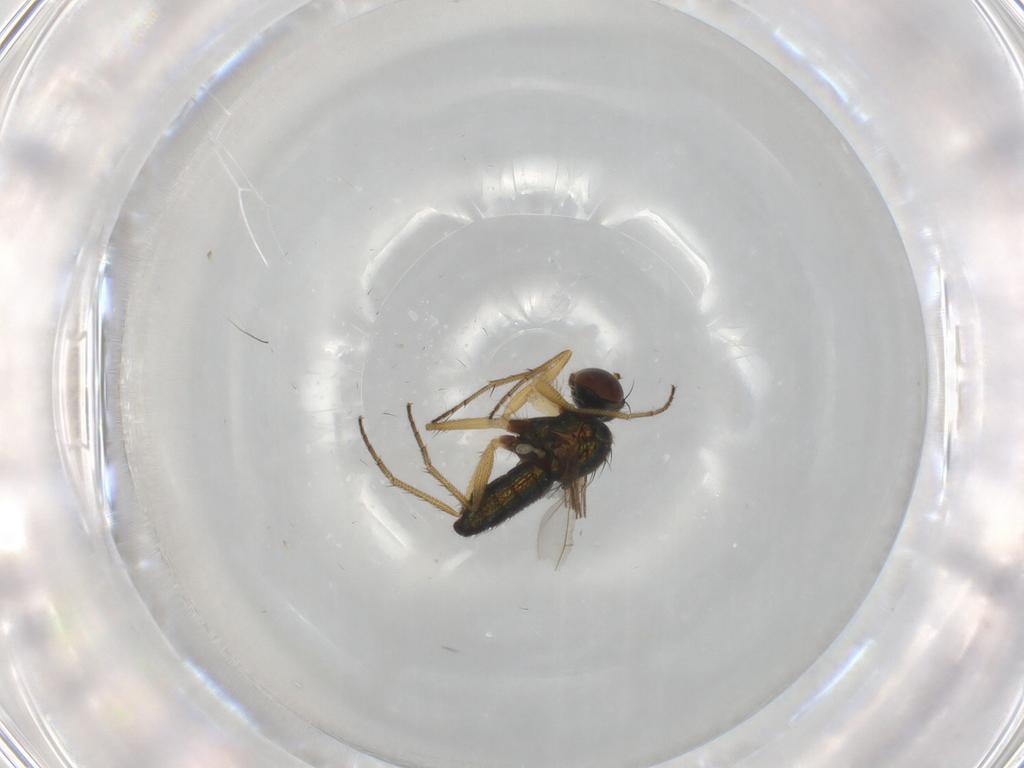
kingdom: Animalia
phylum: Arthropoda
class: Insecta
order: Diptera
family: Dolichopodidae
